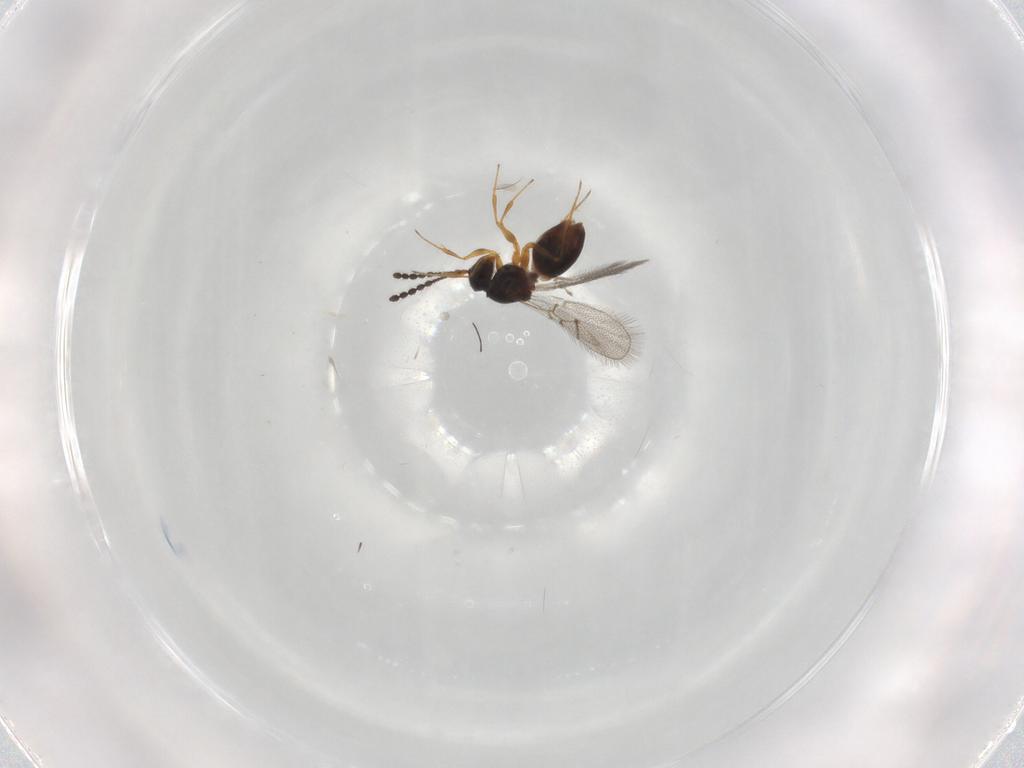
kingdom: Animalia
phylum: Arthropoda
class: Insecta
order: Hymenoptera
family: Figitidae
